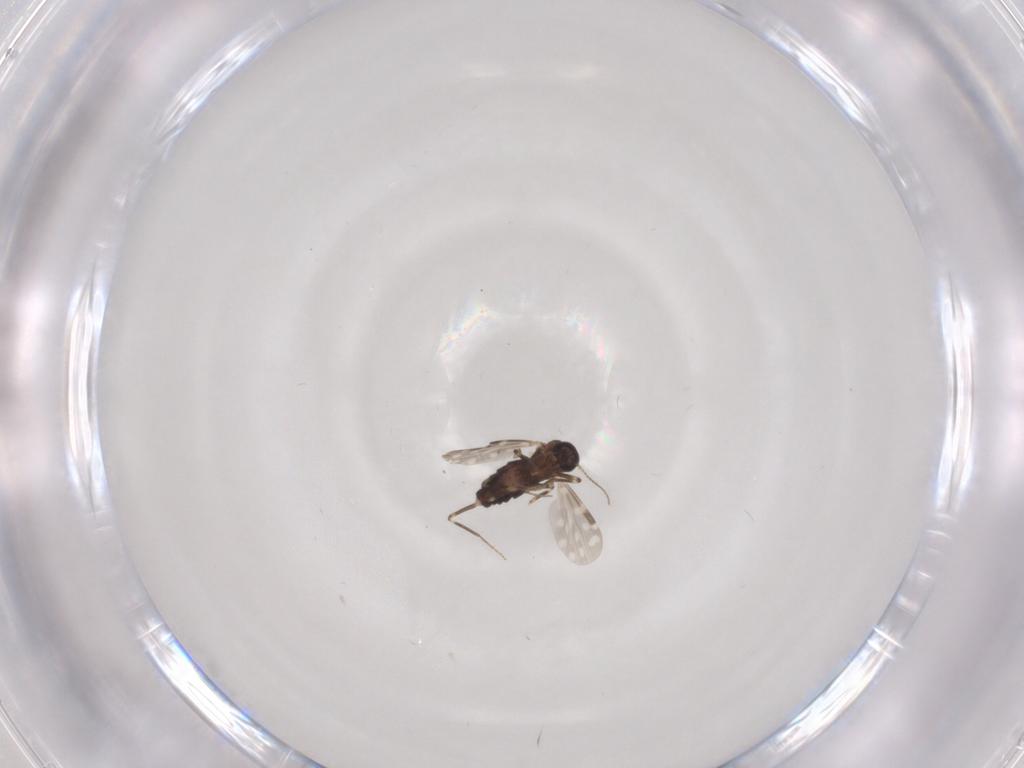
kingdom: Animalia
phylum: Arthropoda
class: Insecta
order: Diptera
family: Ceratopogonidae
